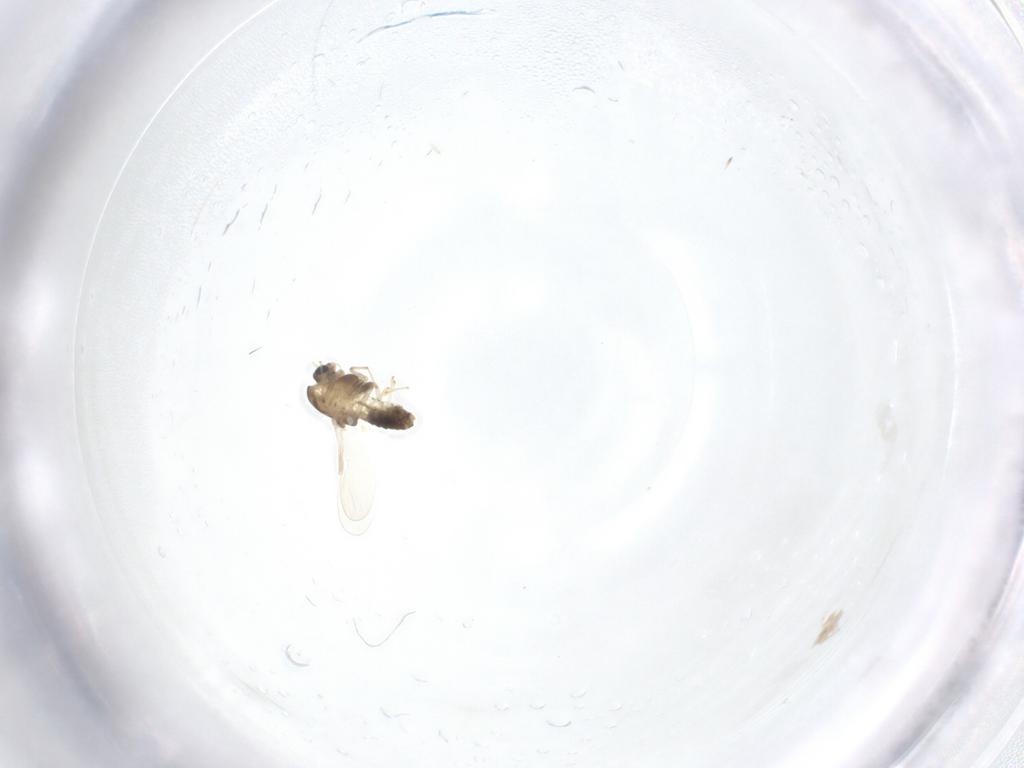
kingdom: Animalia
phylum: Arthropoda
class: Insecta
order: Diptera
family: Chironomidae
